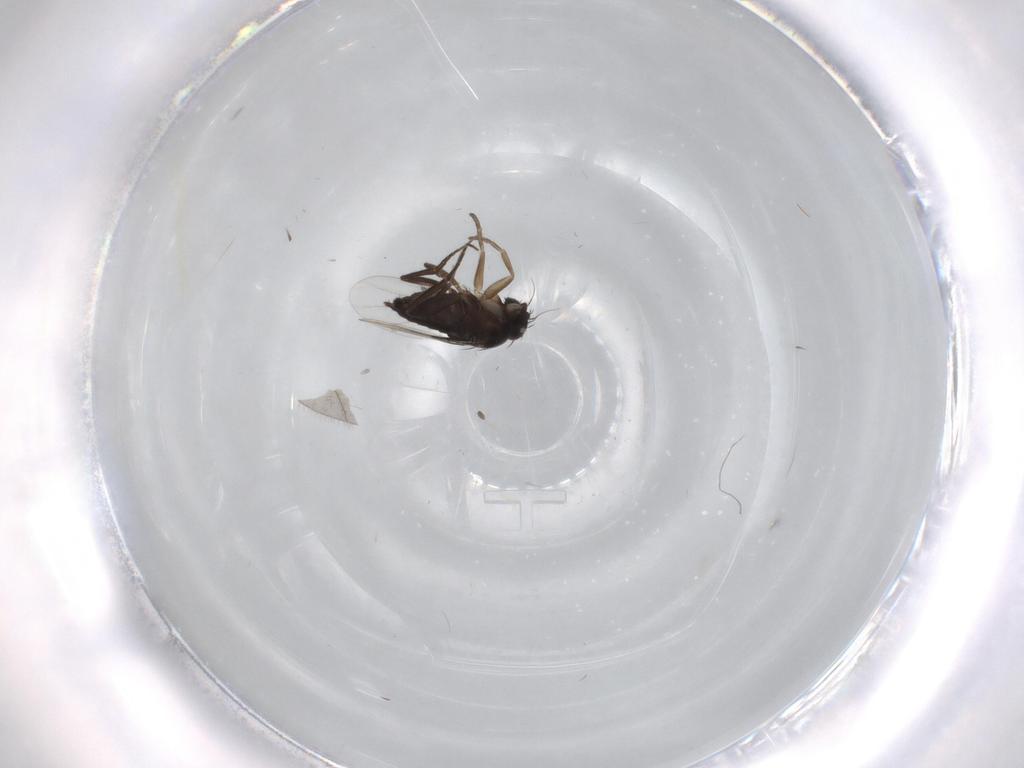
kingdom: Animalia
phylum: Arthropoda
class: Insecta
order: Diptera
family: Phoridae
